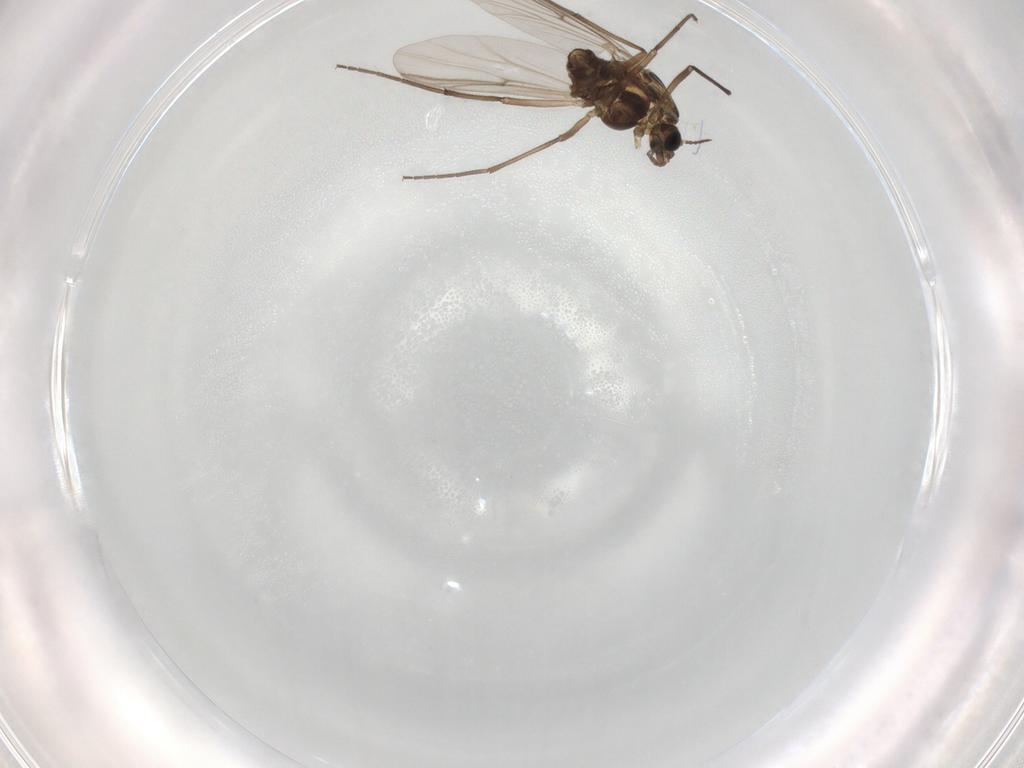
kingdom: Animalia
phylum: Arthropoda
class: Insecta
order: Diptera
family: Chironomidae
